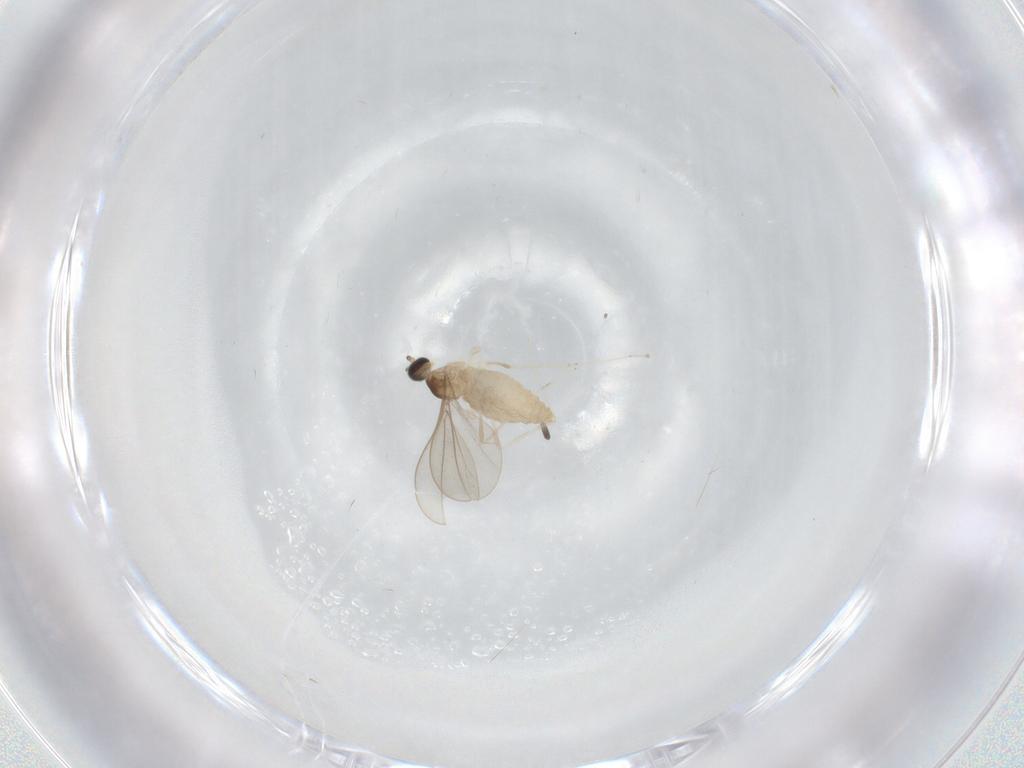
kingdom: Animalia
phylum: Arthropoda
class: Insecta
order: Diptera
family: Cecidomyiidae
